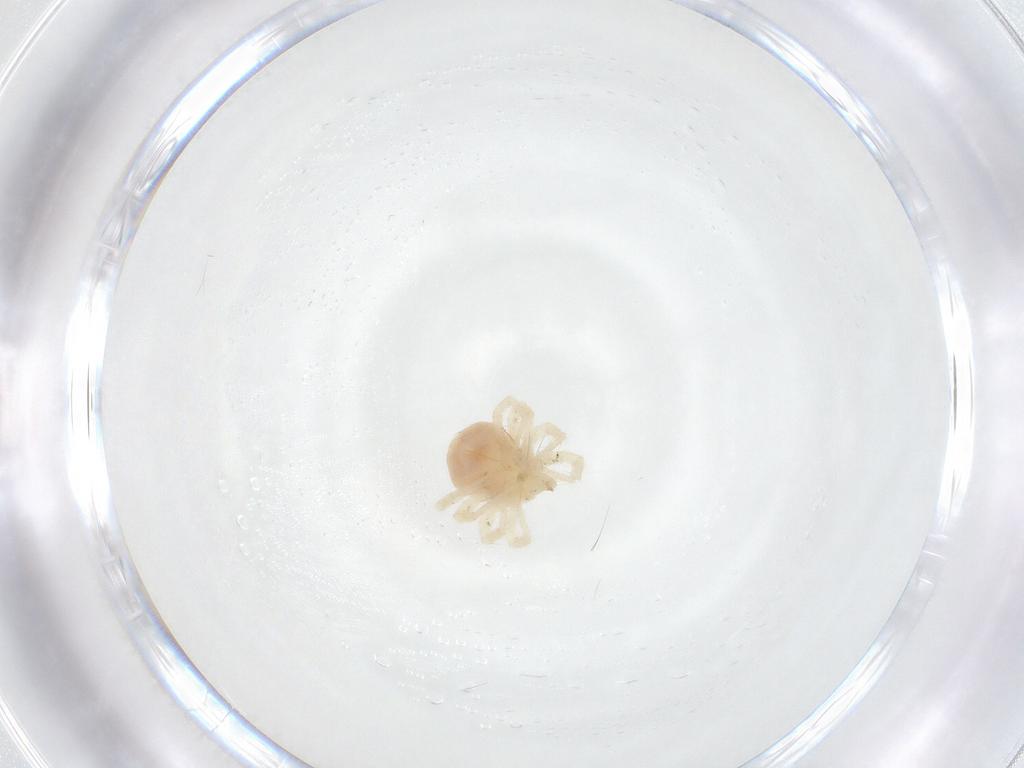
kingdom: Animalia
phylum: Arthropoda
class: Arachnida
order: Trombidiformes
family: Anystidae
